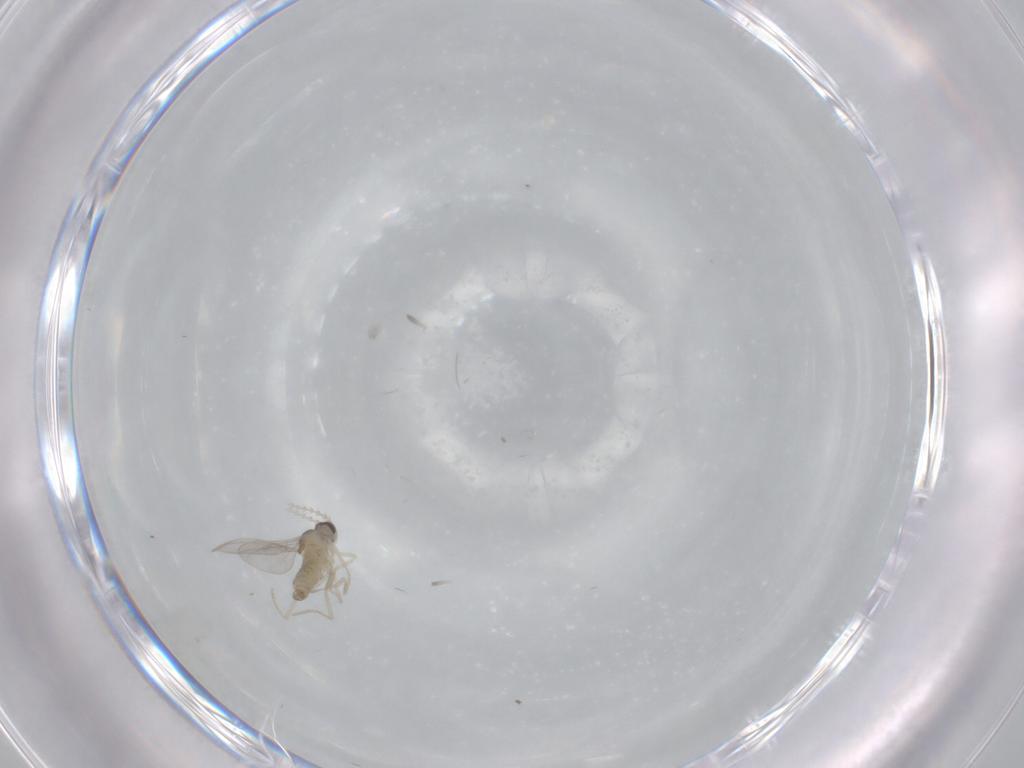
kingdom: Animalia
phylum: Arthropoda
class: Insecta
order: Diptera
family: Cecidomyiidae
